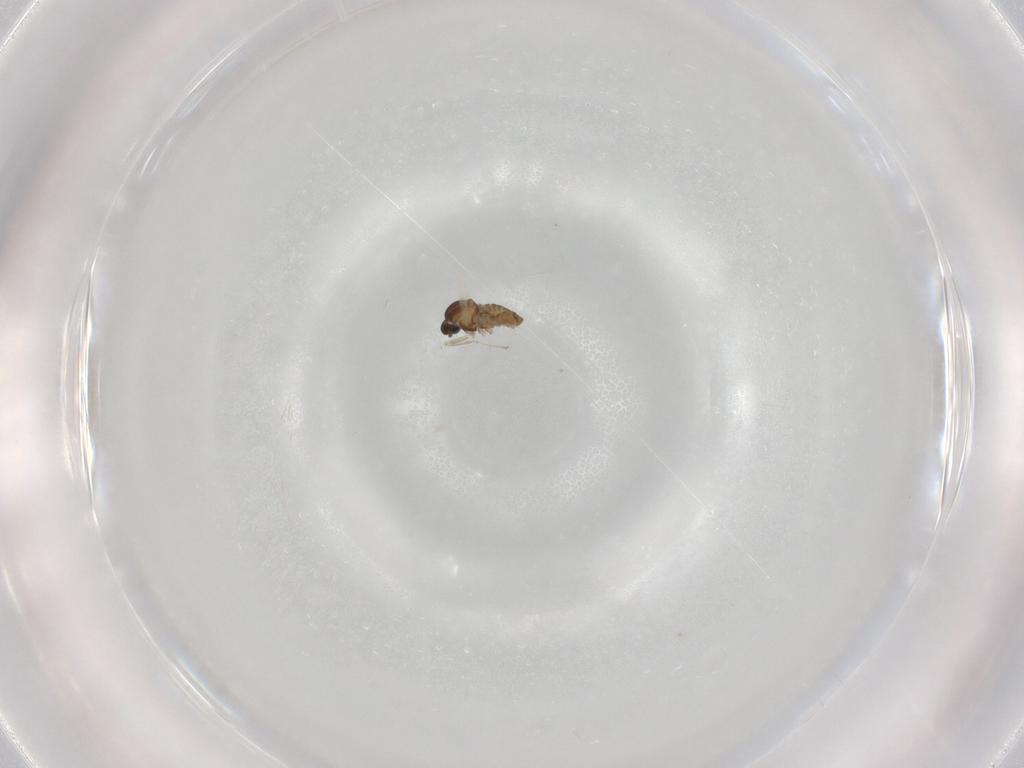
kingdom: Animalia
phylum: Arthropoda
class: Insecta
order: Diptera
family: Cecidomyiidae
